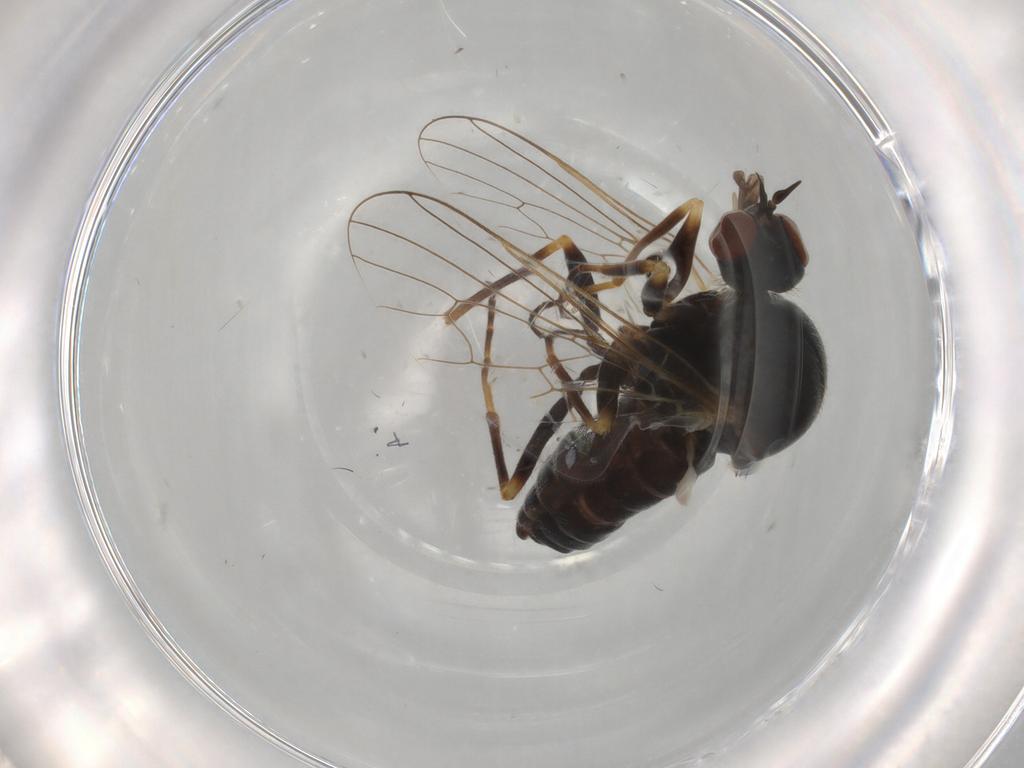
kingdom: Animalia
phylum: Arthropoda
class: Insecta
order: Diptera
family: Bombyliidae
